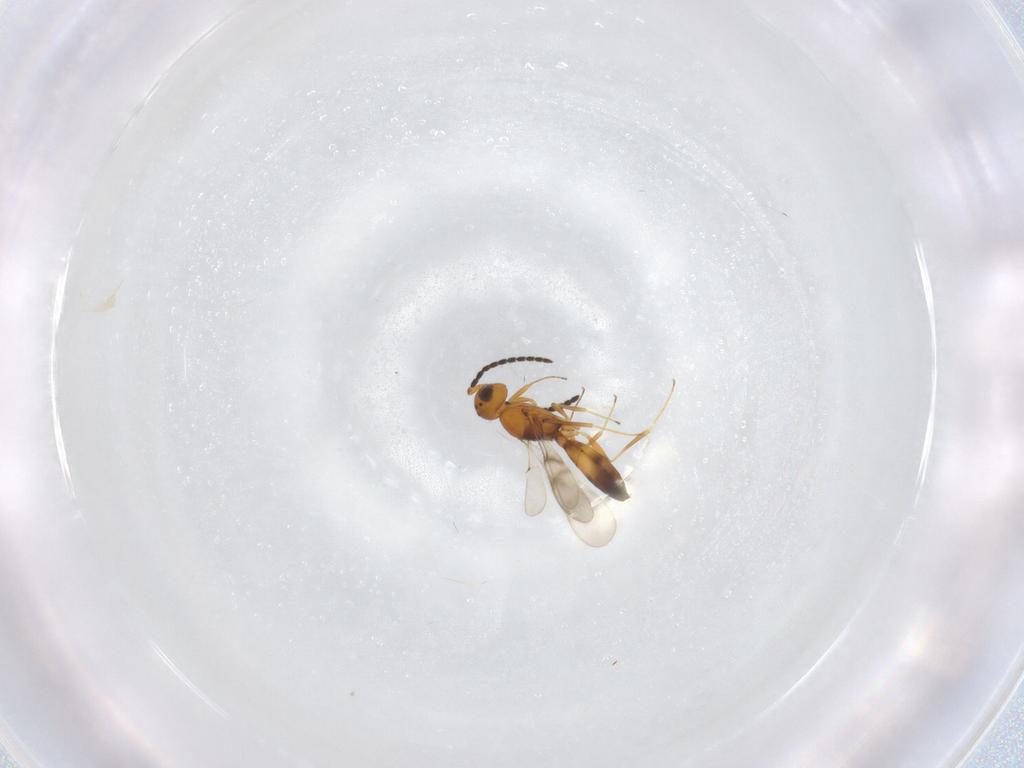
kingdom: Animalia
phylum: Arthropoda
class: Insecta
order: Hymenoptera
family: Scelionidae
